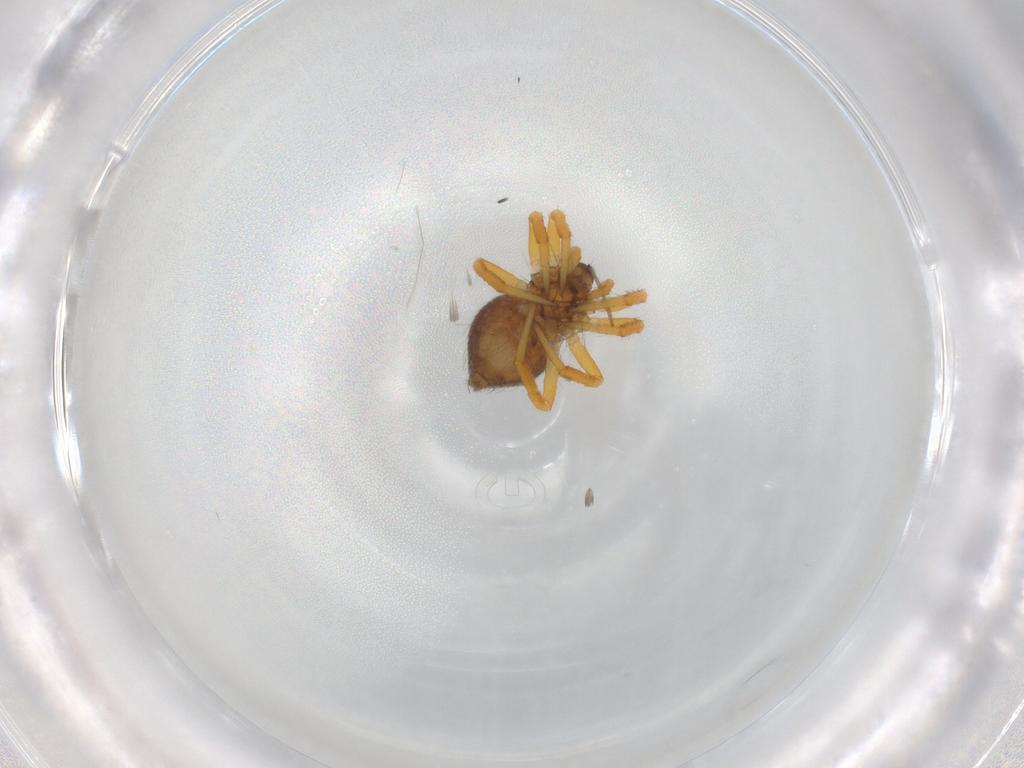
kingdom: Animalia
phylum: Arthropoda
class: Arachnida
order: Araneae
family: Theridiidae
